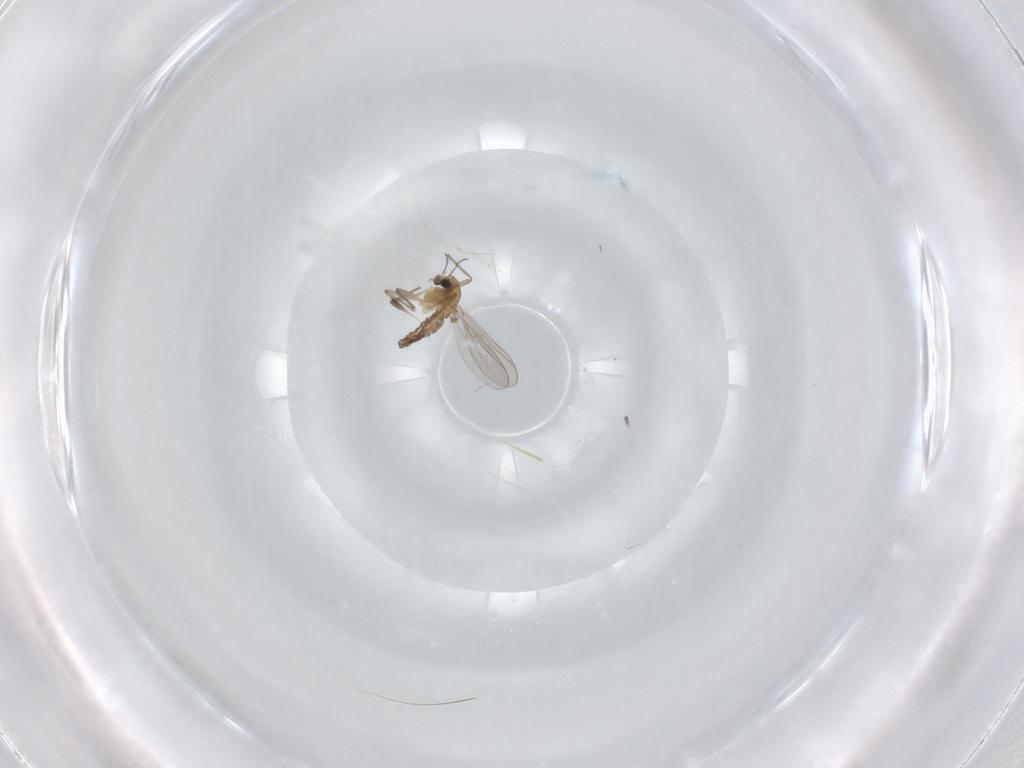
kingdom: Animalia
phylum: Arthropoda
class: Insecta
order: Diptera
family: Chironomidae
